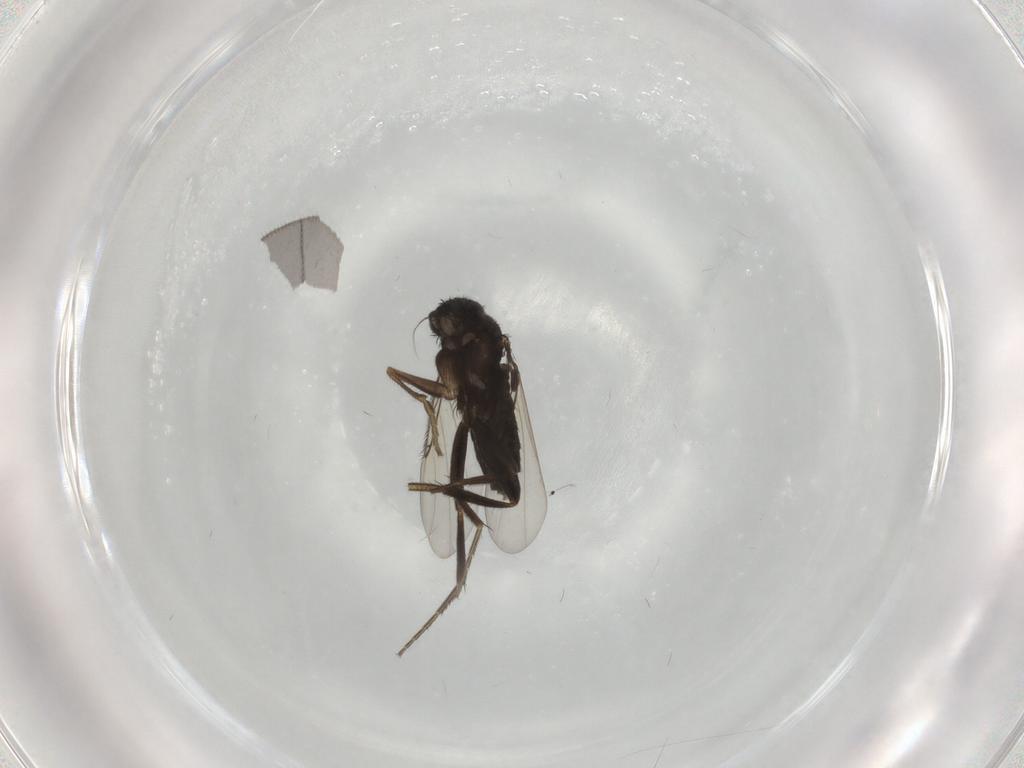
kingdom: Animalia
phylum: Arthropoda
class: Insecta
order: Diptera
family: Phoridae
